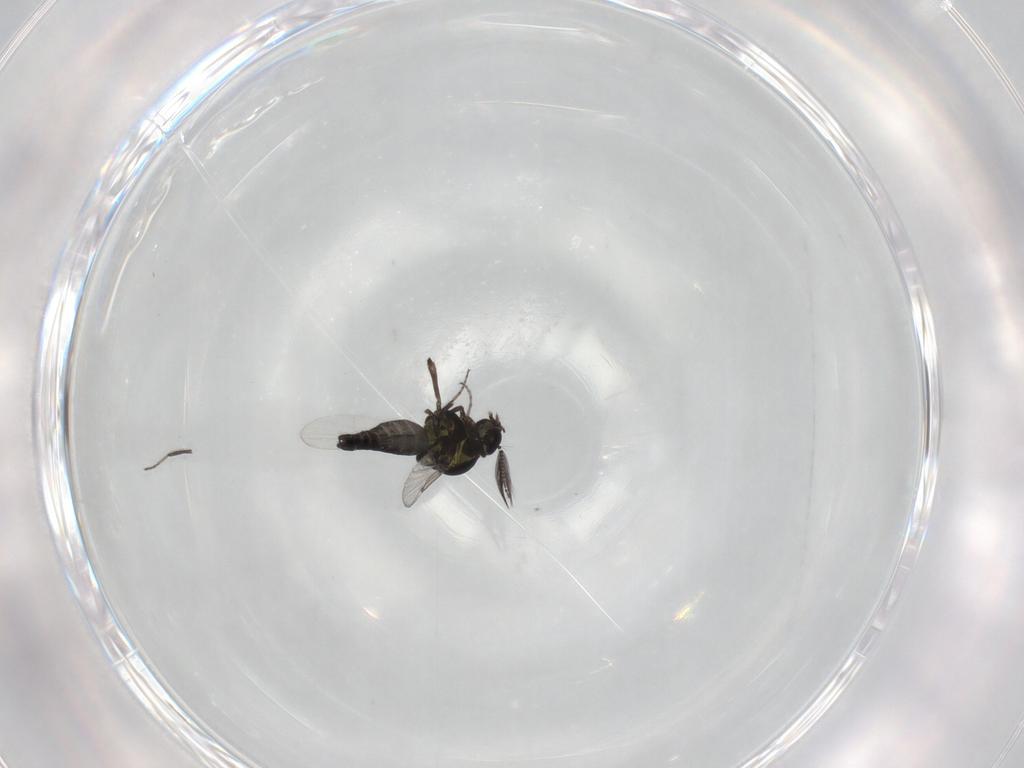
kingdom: Animalia
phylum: Arthropoda
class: Insecta
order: Diptera
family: Ceratopogonidae
